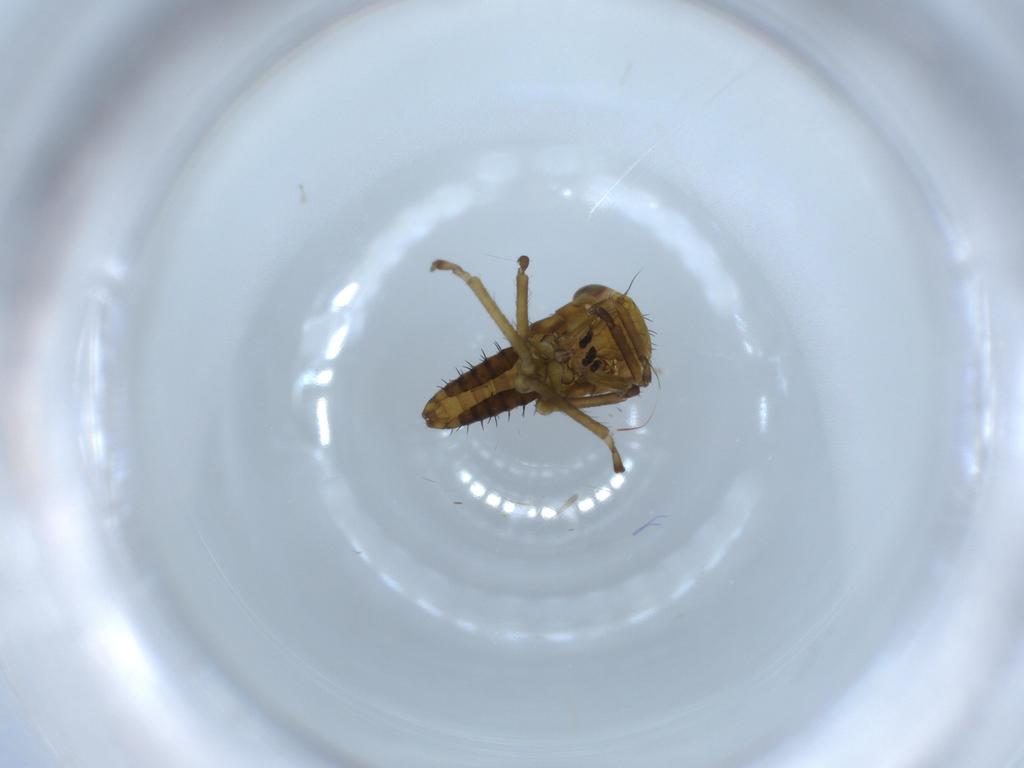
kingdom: Animalia
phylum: Arthropoda
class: Insecta
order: Hemiptera
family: Cicadellidae
